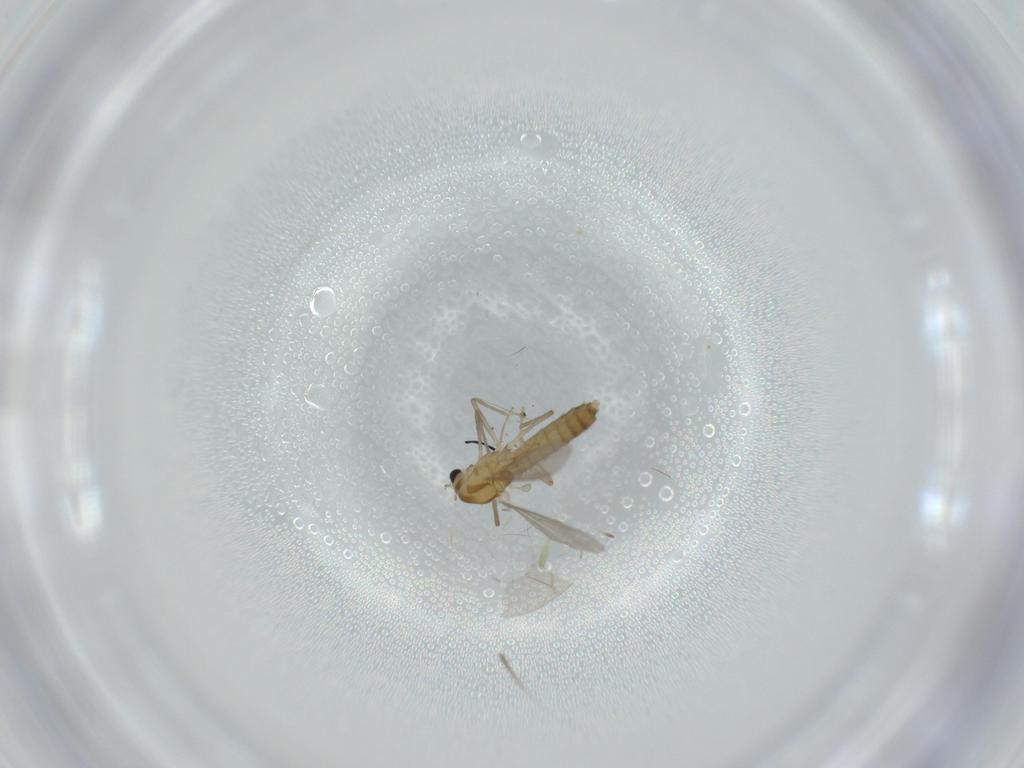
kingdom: Animalia
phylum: Arthropoda
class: Insecta
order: Diptera
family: Chironomidae
